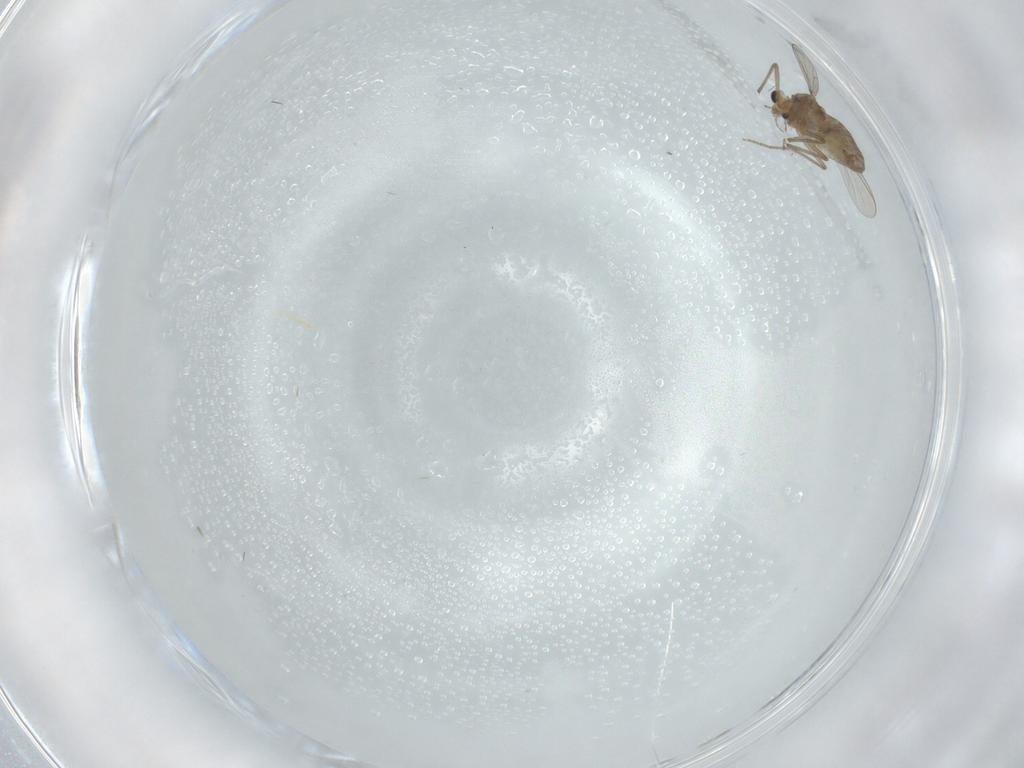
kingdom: Animalia
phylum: Arthropoda
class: Insecta
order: Diptera
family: Chironomidae
